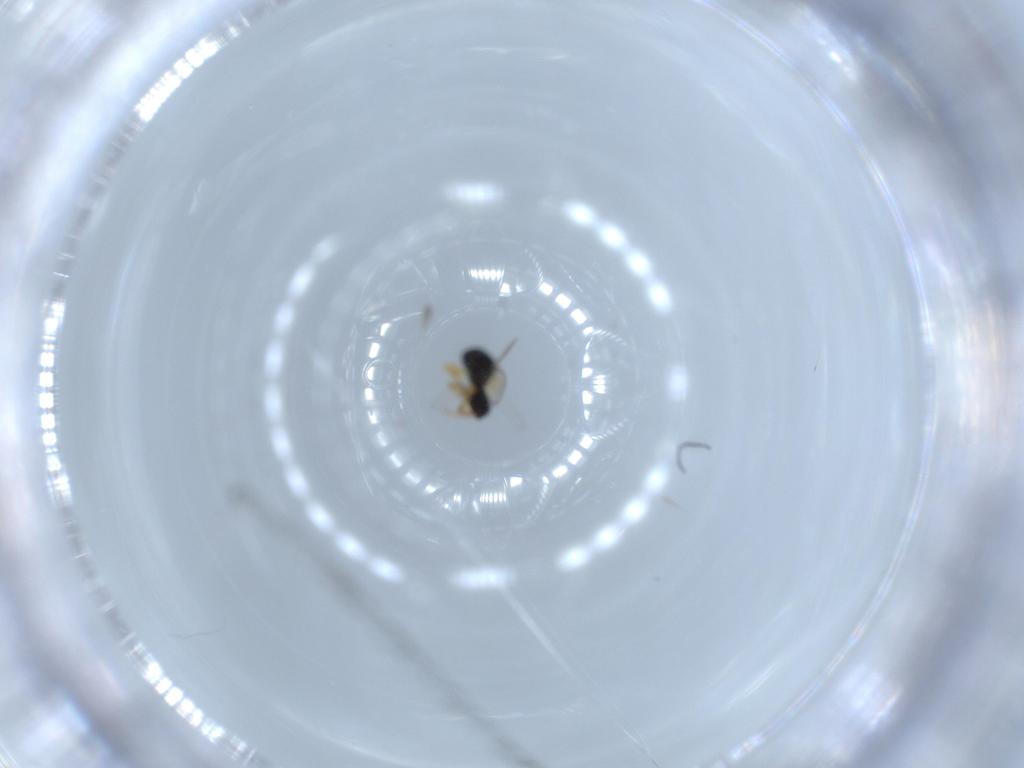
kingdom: Animalia
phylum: Arthropoda
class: Insecta
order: Hymenoptera
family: Platygastridae
